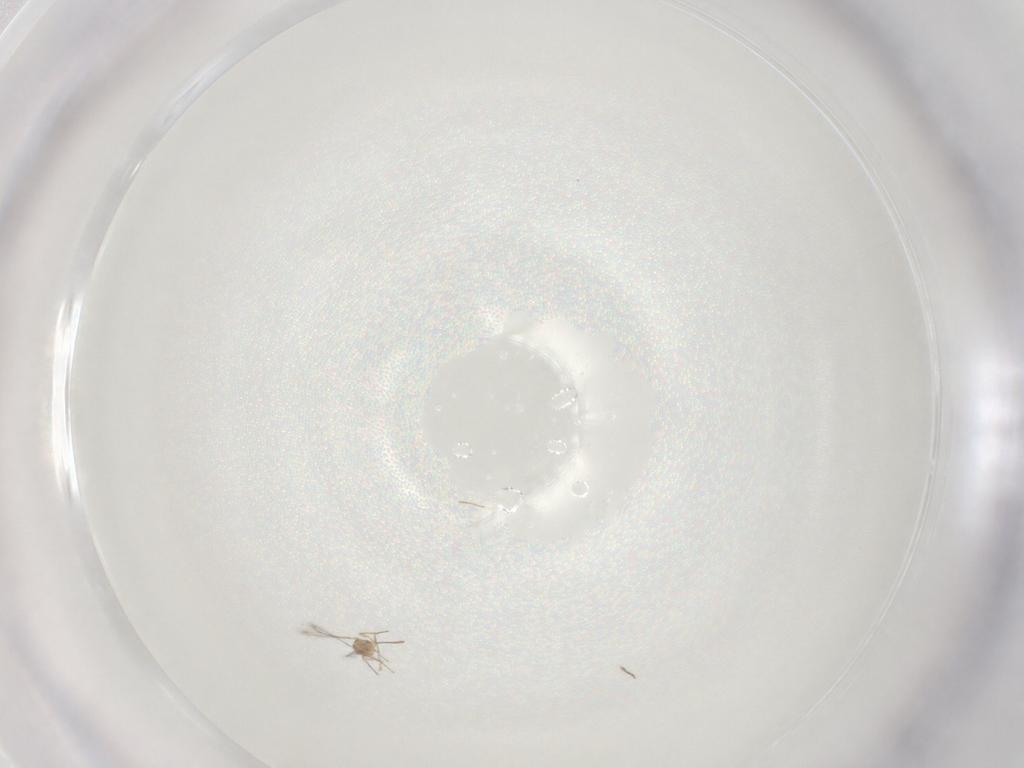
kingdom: Animalia
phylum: Arthropoda
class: Insecta
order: Hymenoptera
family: Mymaridae
